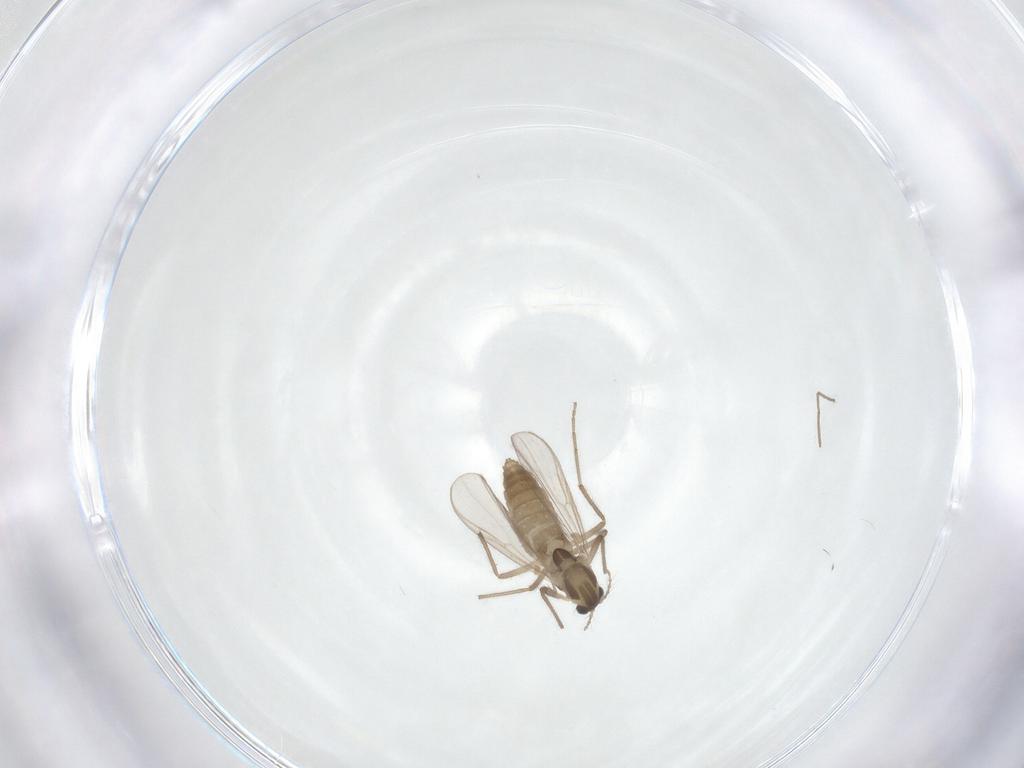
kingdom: Animalia
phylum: Arthropoda
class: Insecta
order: Diptera
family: Chironomidae
